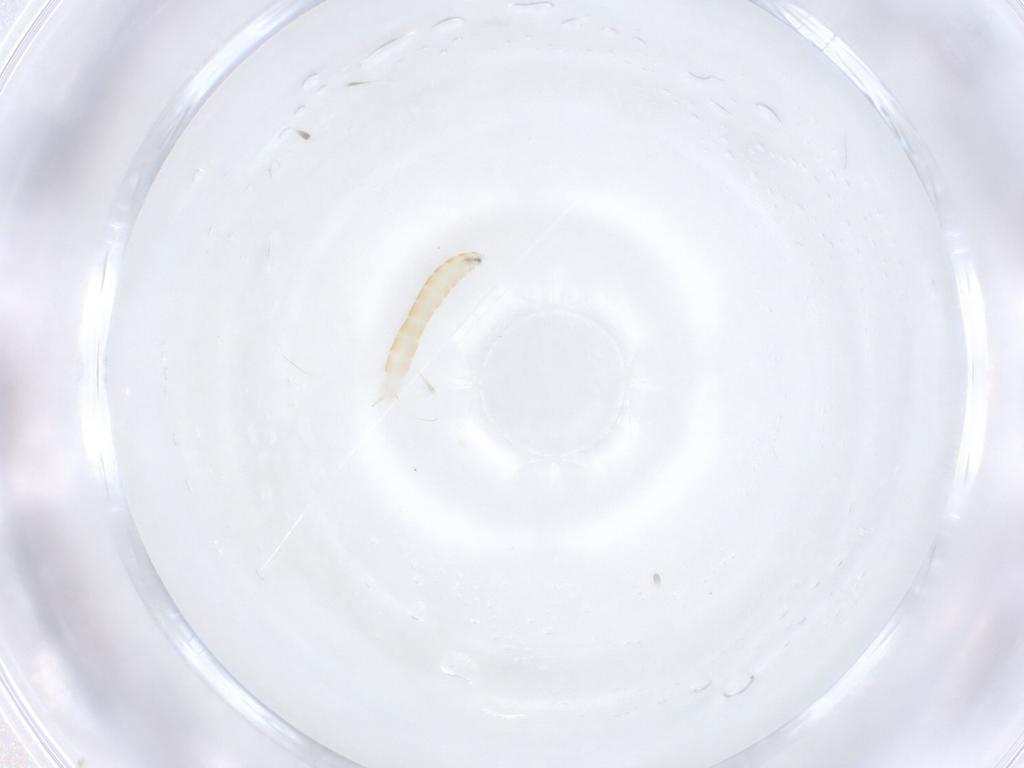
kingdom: Animalia
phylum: Arthropoda
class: Insecta
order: Diptera
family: Tachinidae
